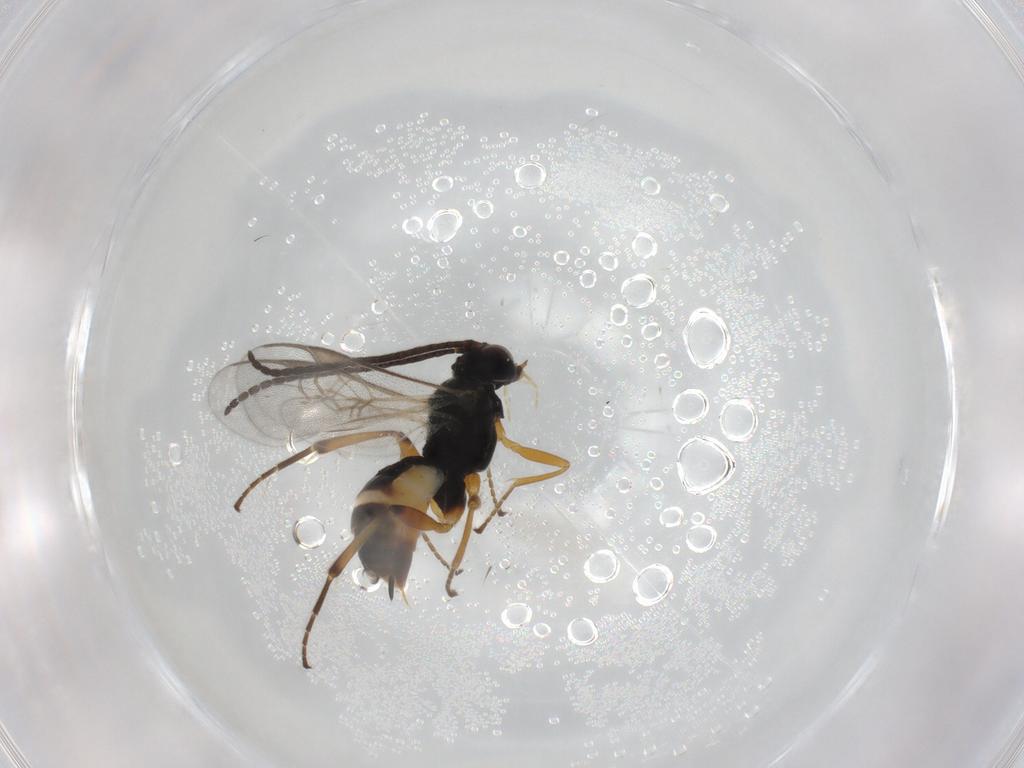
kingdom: Animalia
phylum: Arthropoda
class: Insecta
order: Hymenoptera
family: Braconidae
